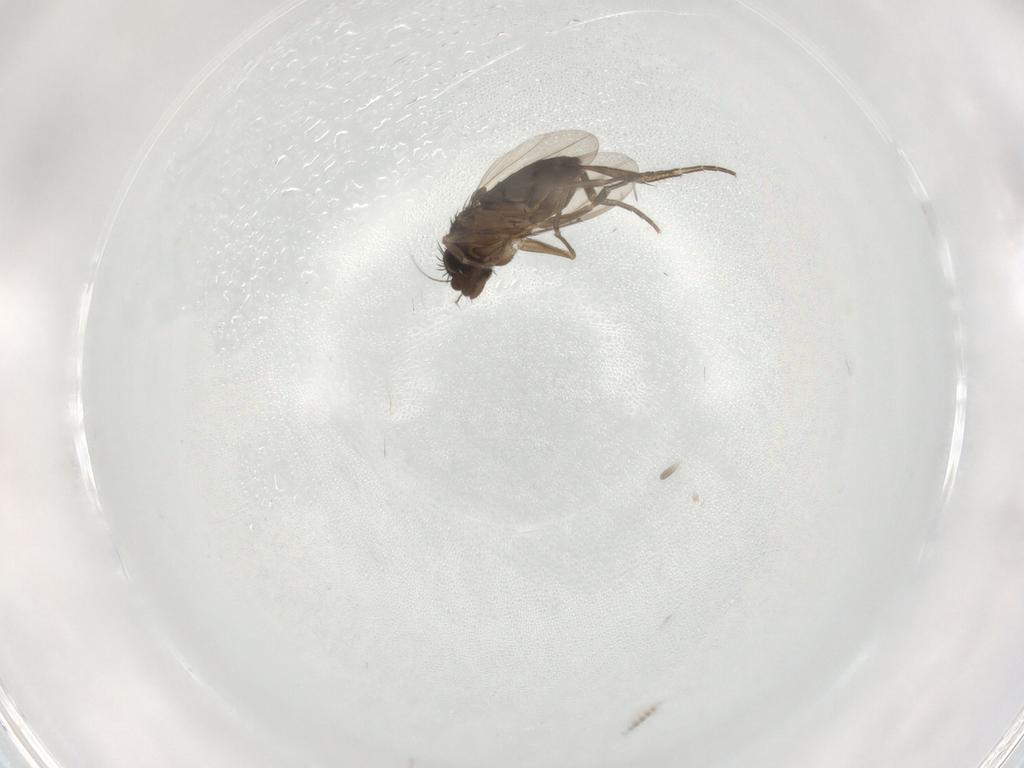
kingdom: Animalia
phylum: Arthropoda
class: Insecta
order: Diptera
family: Phoridae
